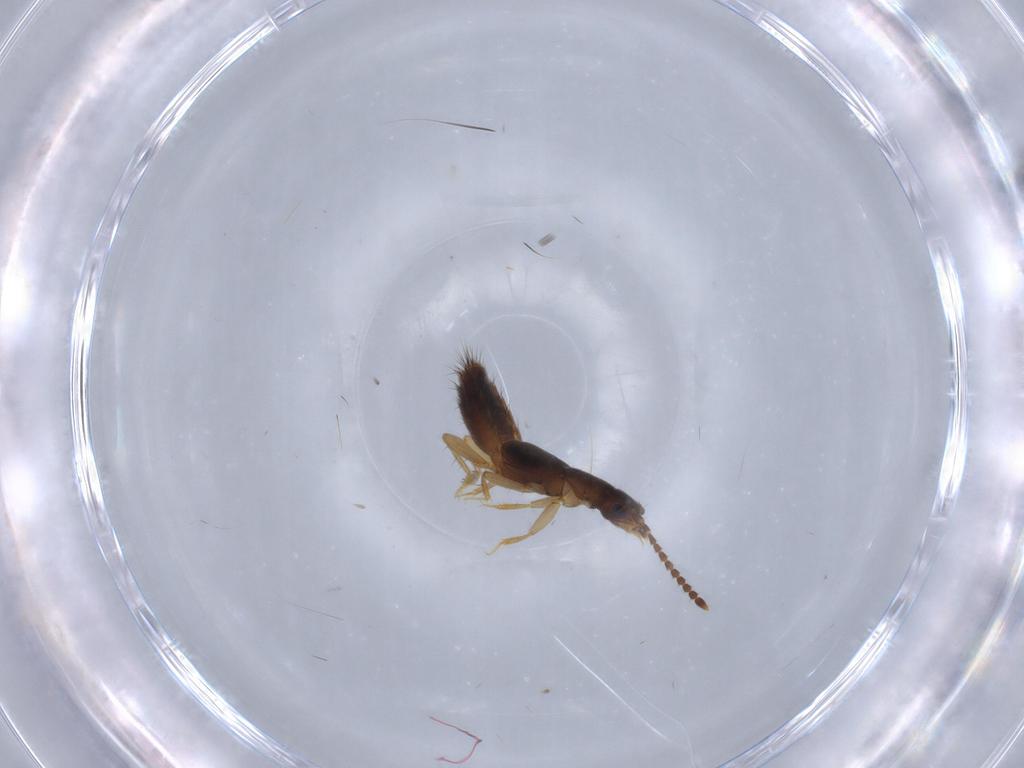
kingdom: Animalia
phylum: Arthropoda
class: Insecta
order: Coleoptera
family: Staphylinidae
